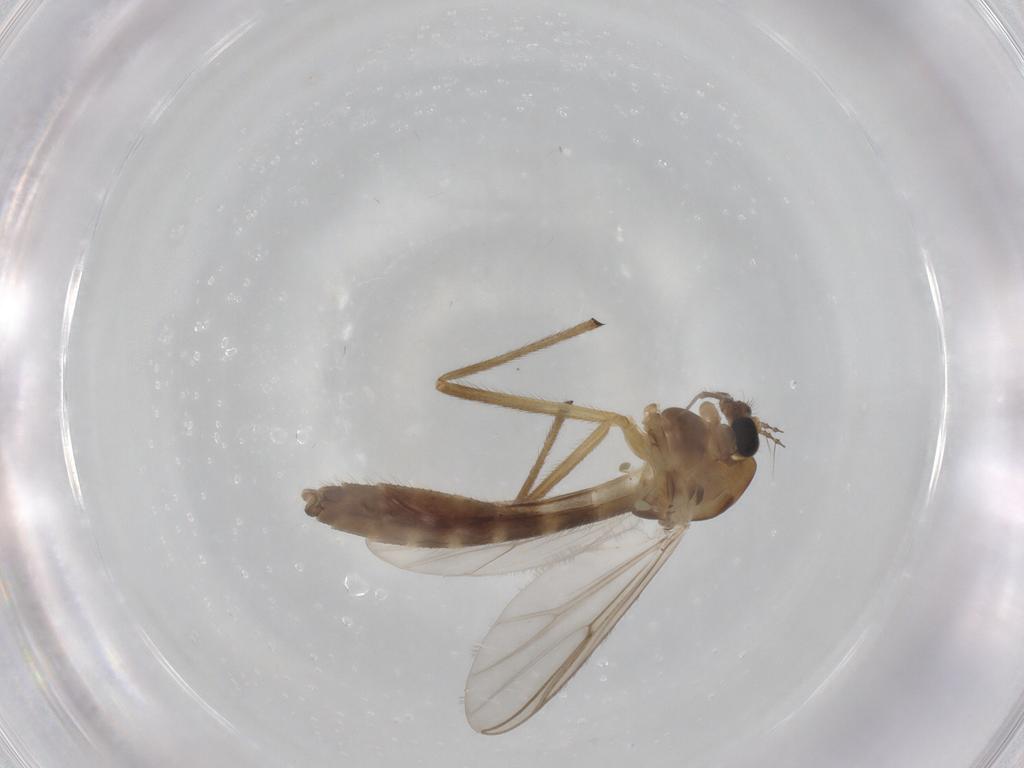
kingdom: Animalia
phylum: Arthropoda
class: Insecta
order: Diptera
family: Chironomidae
